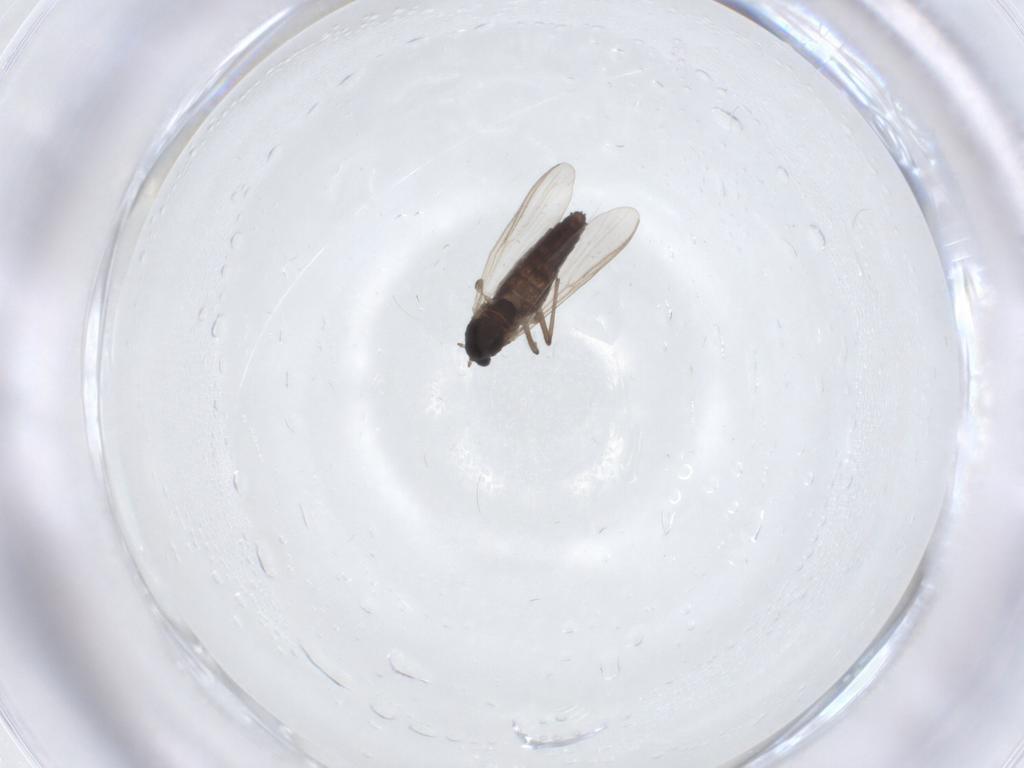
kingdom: Animalia
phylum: Arthropoda
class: Insecta
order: Diptera
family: Chironomidae
